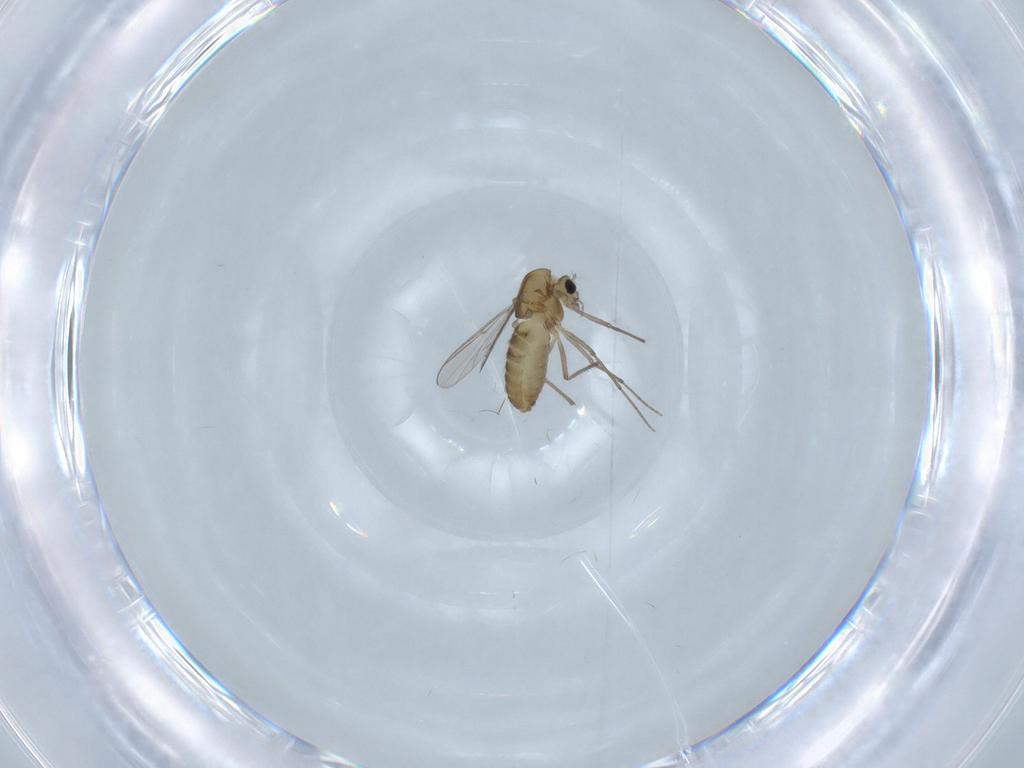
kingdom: Animalia
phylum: Arthropoda
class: Insecta
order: Diptera
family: Chironomidae
